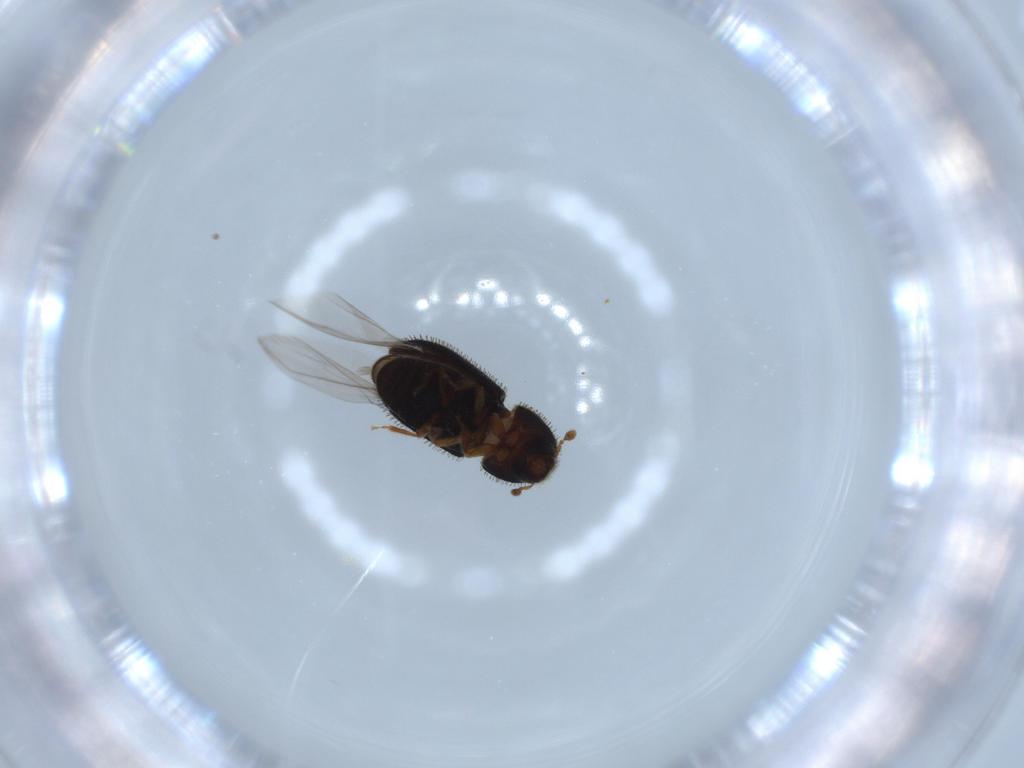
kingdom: Animalia
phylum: Arthropoda
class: Insecta
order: Coleoptera
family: Curculionidae
